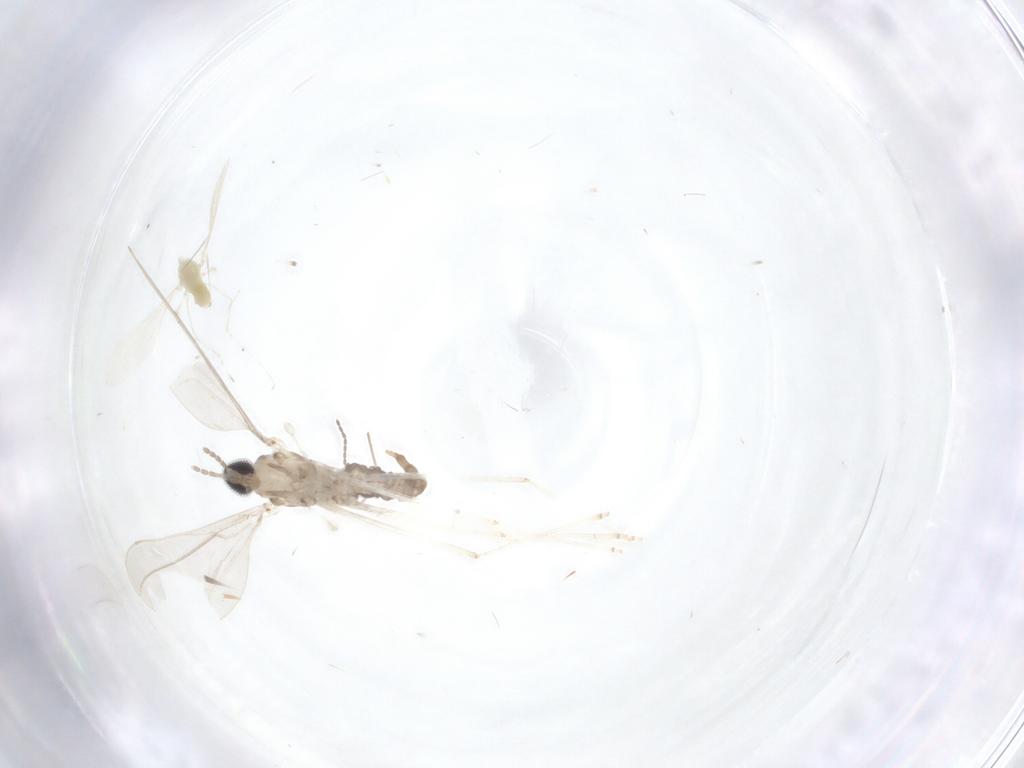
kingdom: Animalia
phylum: Arthropoda
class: Insecta
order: Diptera
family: Cecidomyiidae
